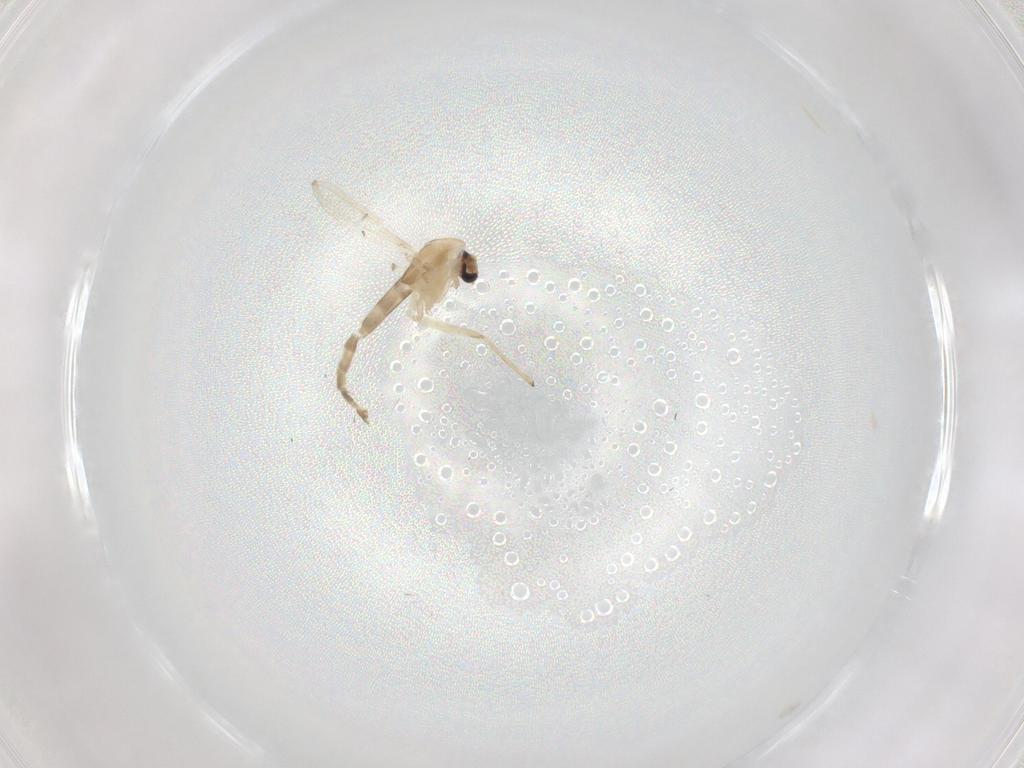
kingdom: Animalia
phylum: Arthropoda
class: Insecta
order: Diptera
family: Chironomidae
